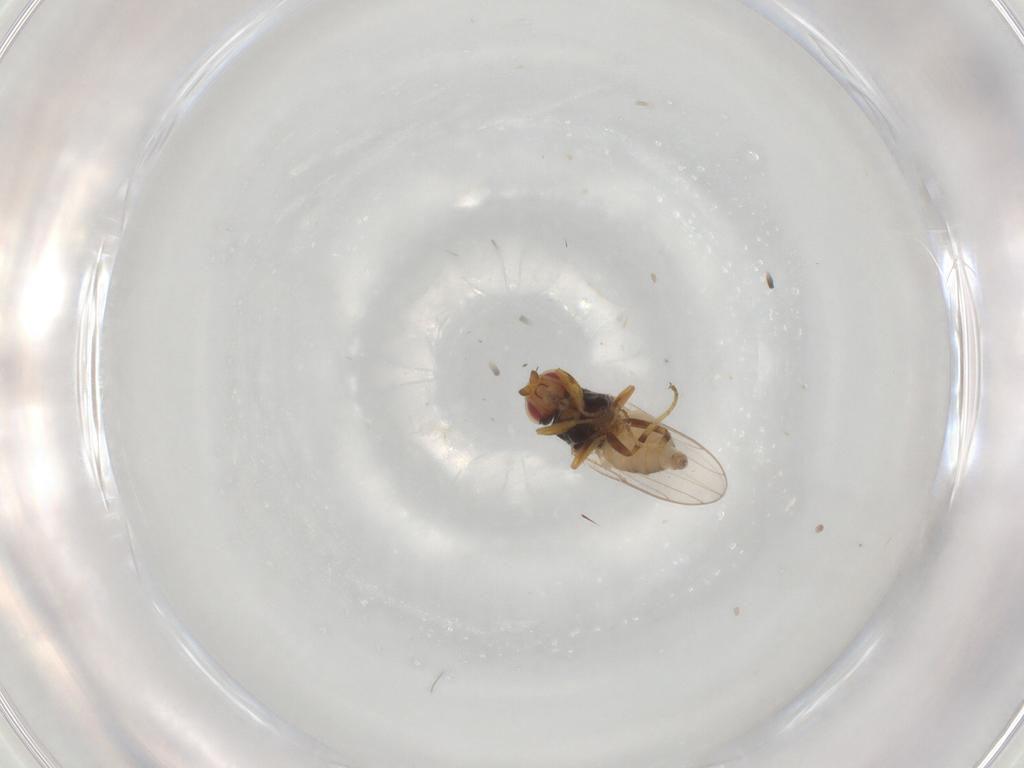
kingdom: Animalia
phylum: Arthropoda
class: Insecta
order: Diptera
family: Chloropidae
